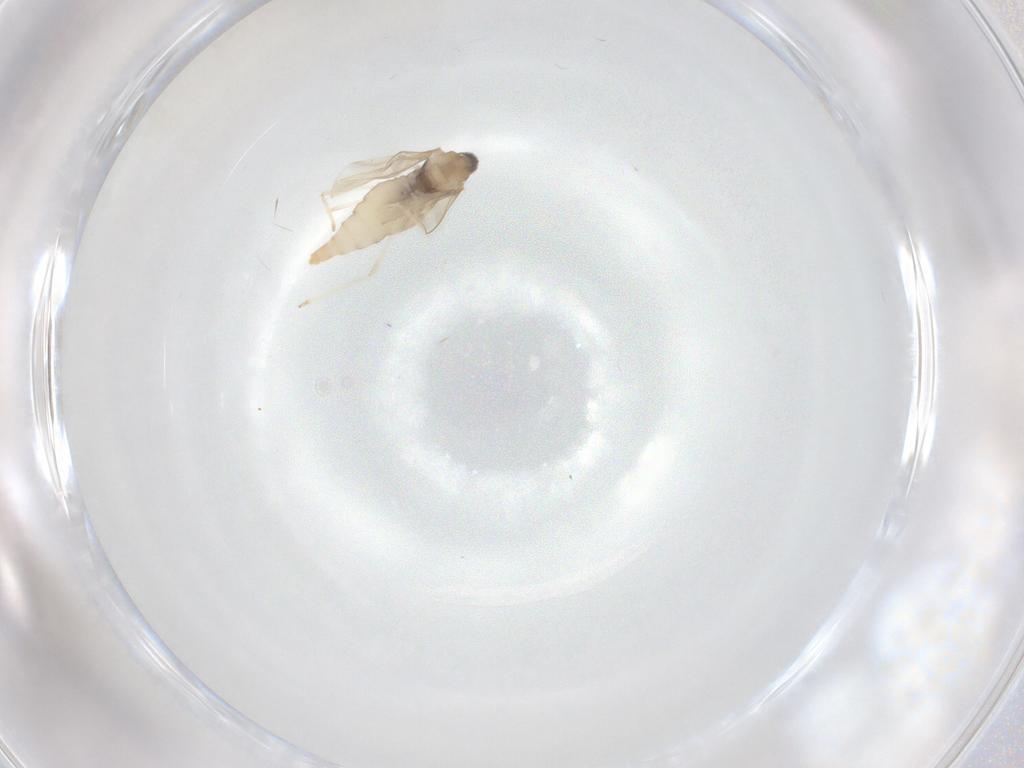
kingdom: Animalia
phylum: Arthropoda
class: Insecta
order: Diptera
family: Cecidomyiidae
